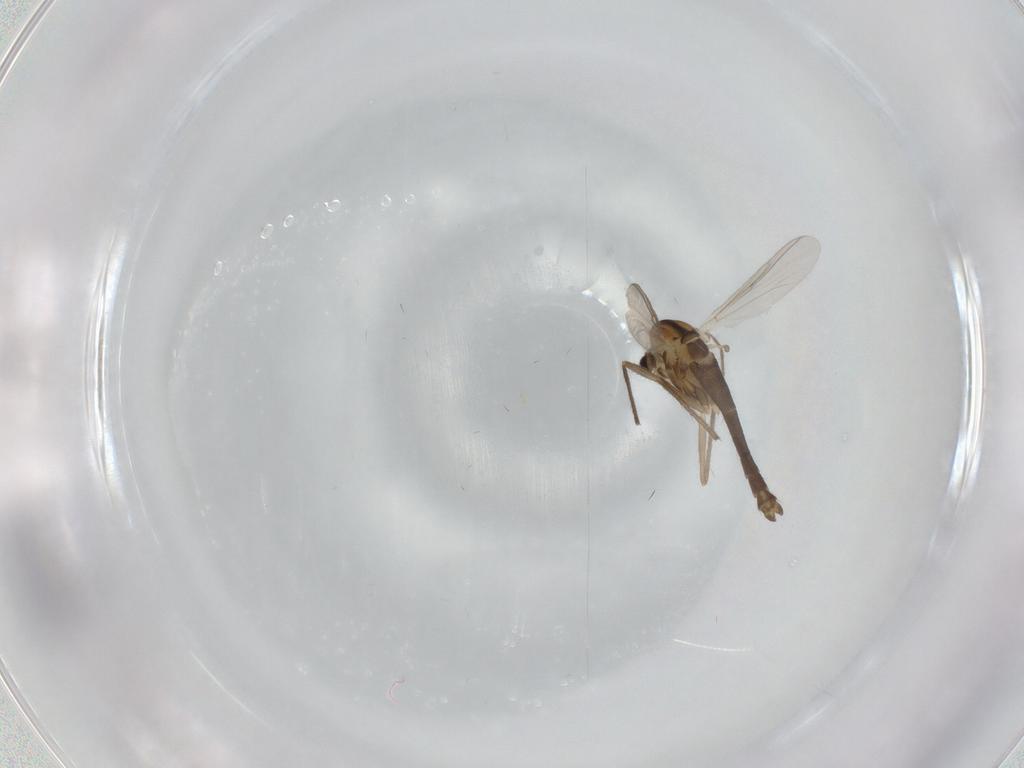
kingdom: Animalia
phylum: Arthropoda
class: Insecta
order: Diptera
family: Chironomidae
